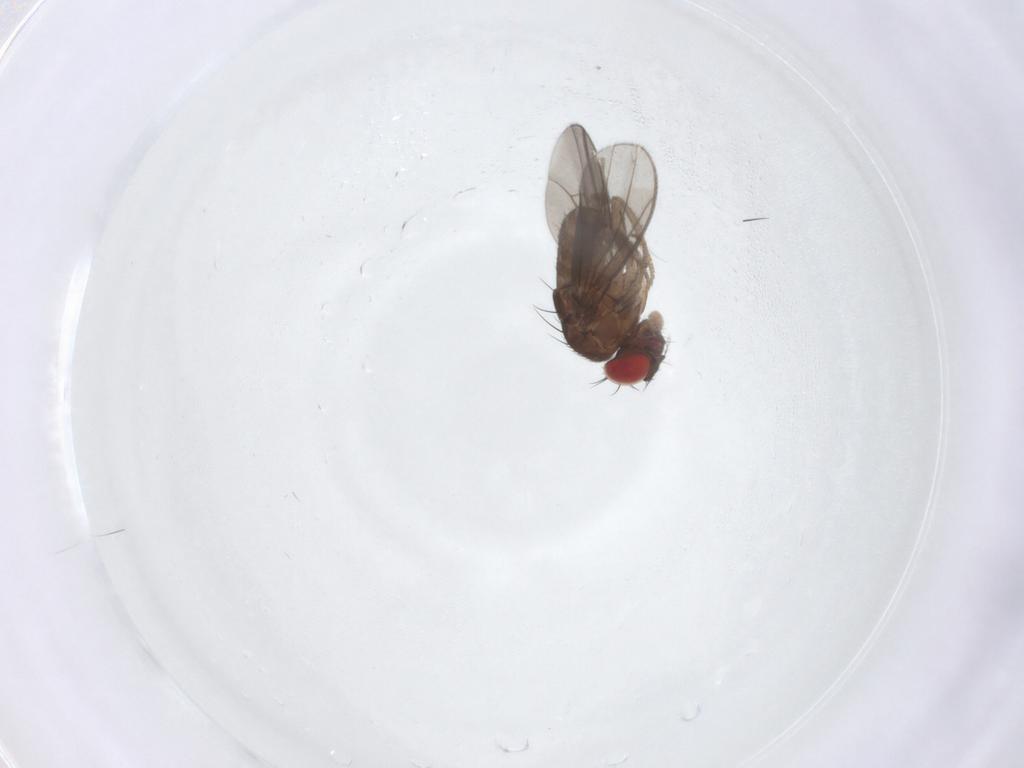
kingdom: Animalia
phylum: Arthropoda
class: Insecta
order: Diptera
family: Drosophilidae
